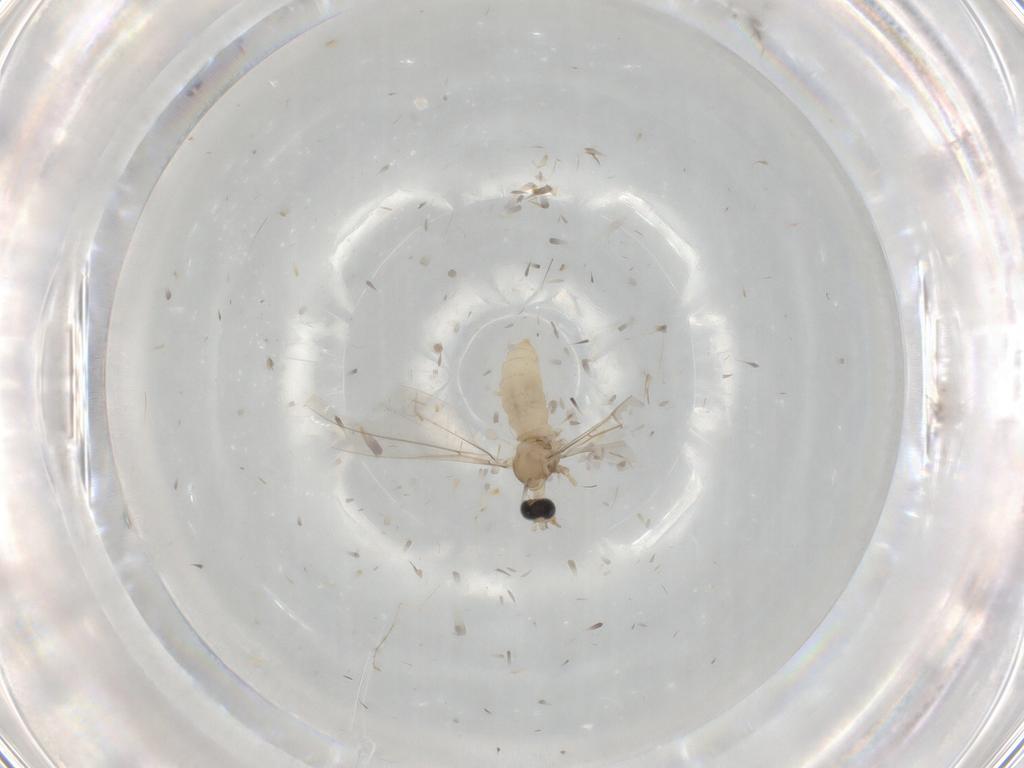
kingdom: Animalia
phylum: Arthropoda
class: Insecta
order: Diptera
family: Cecidomyiidae
